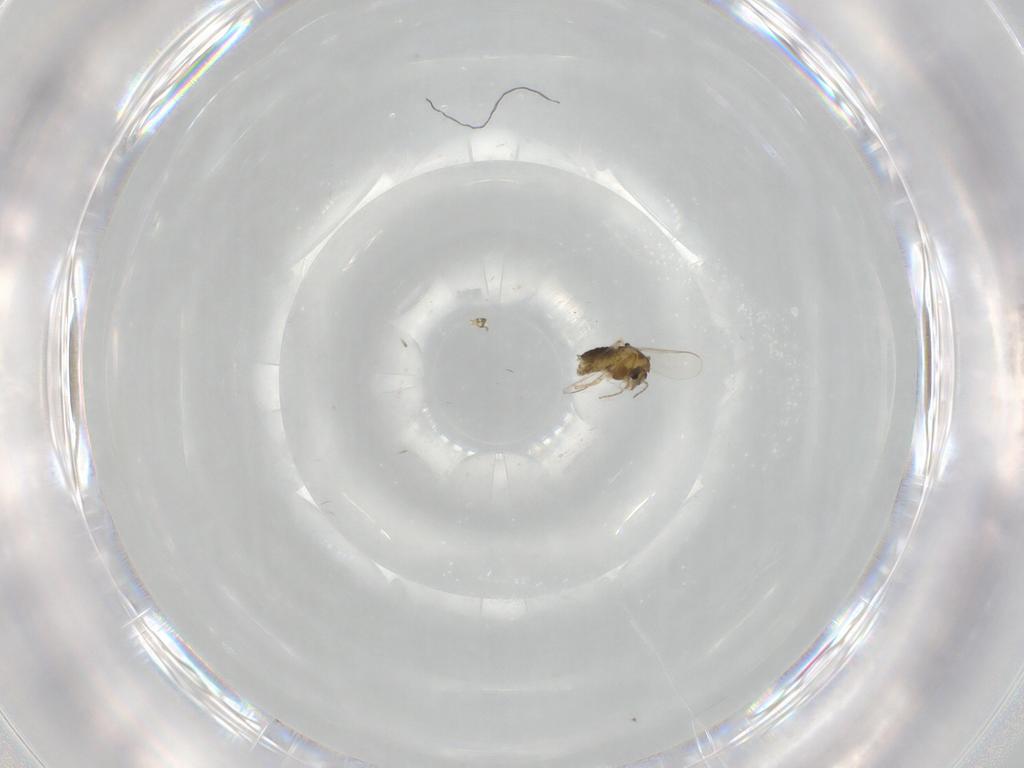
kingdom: Animalia
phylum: Arthropoda
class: Insecta
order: Diptera
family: Chironomidae
